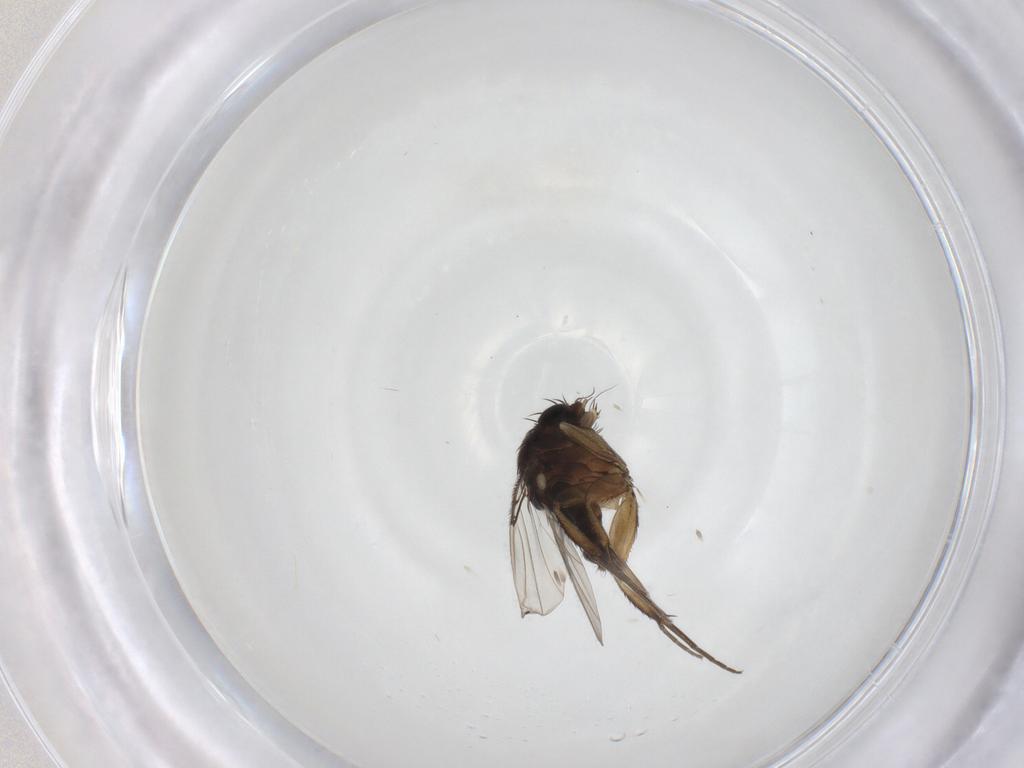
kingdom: Animalia
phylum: Arthropoda
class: Insecta
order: Diptera
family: Phoridae
